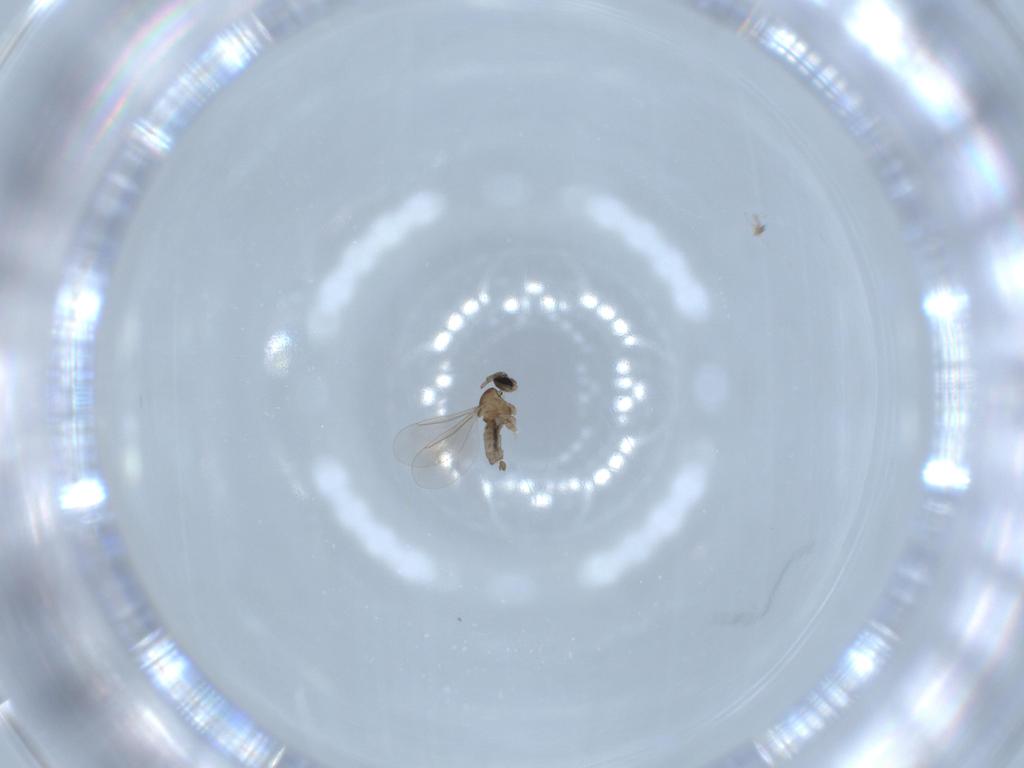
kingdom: Animalia
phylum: Arthropoda
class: Insecta
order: Diptera
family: Cecidomyiidae
